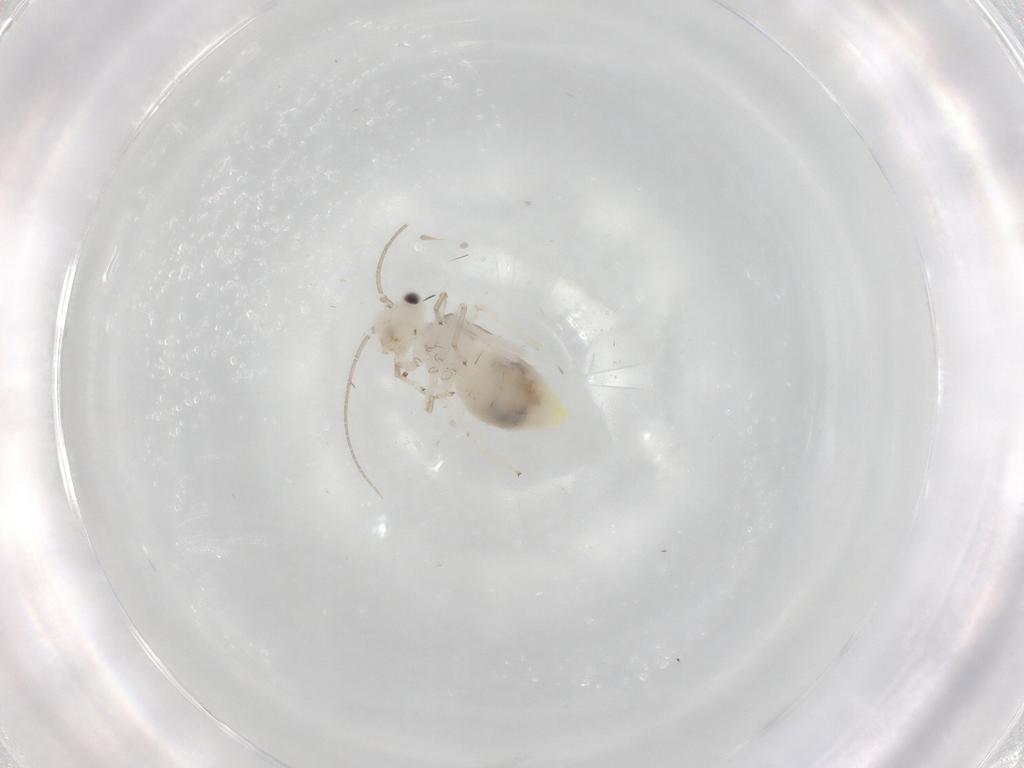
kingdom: Animalia
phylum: Arthropoda
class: Insecta
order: Psocodea
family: Caeciliusidae
